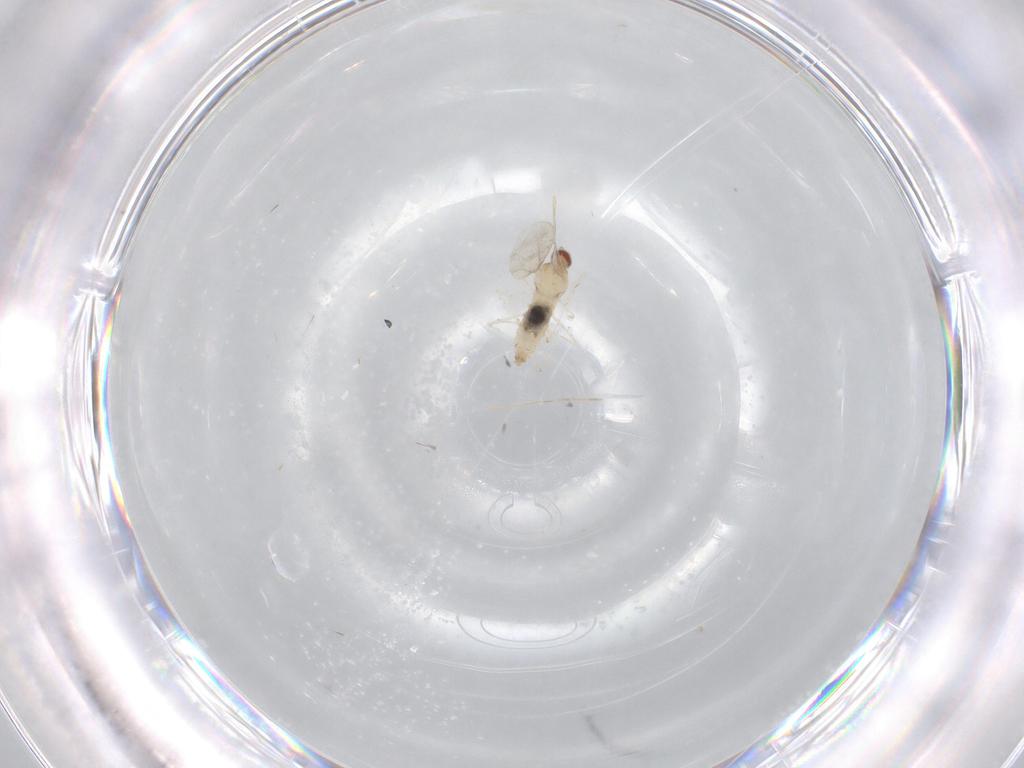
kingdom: Animalia
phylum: Arthropoda
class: Insecta
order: Diptera
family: Cecidomyiidae
